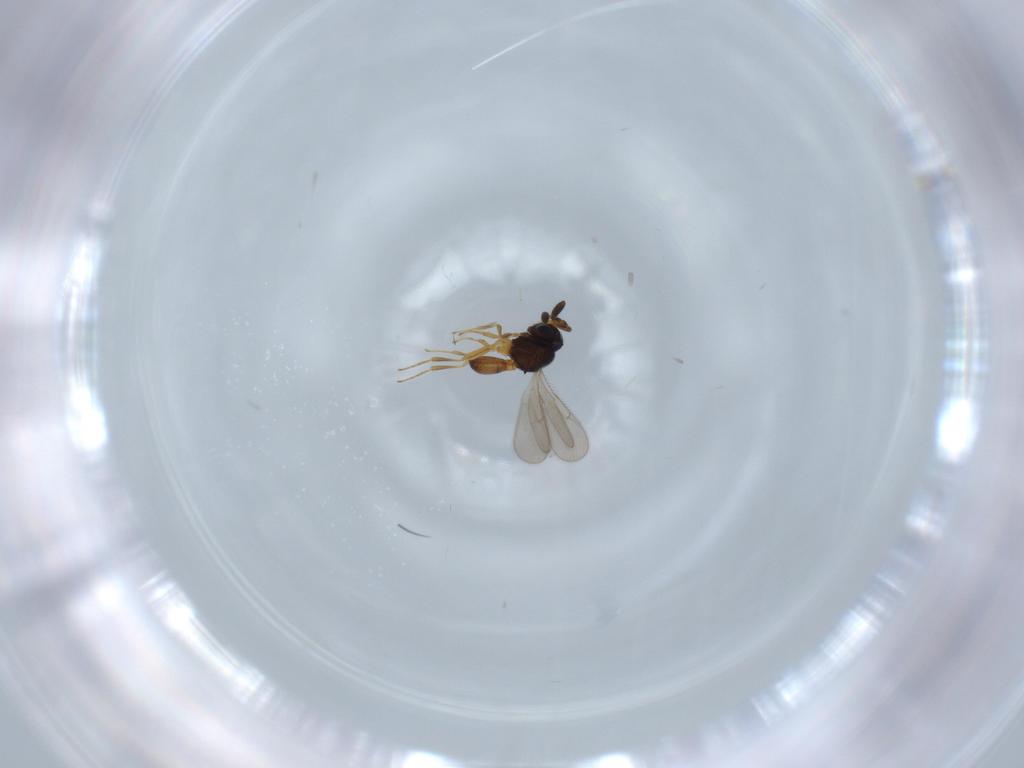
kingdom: Animalia
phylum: Arthropoda
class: Insecta
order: Hymenoptera
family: Scelionidae
